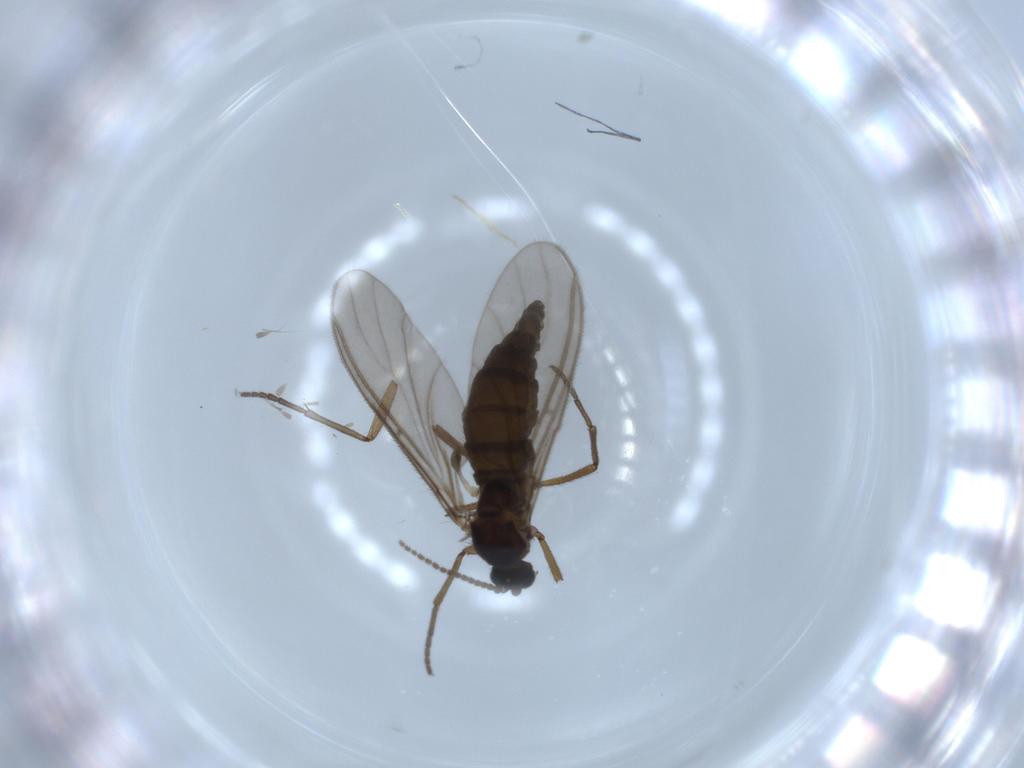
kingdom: Animalia
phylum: Arthropoda
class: Insecta
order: Diptera
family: Sciaridae
